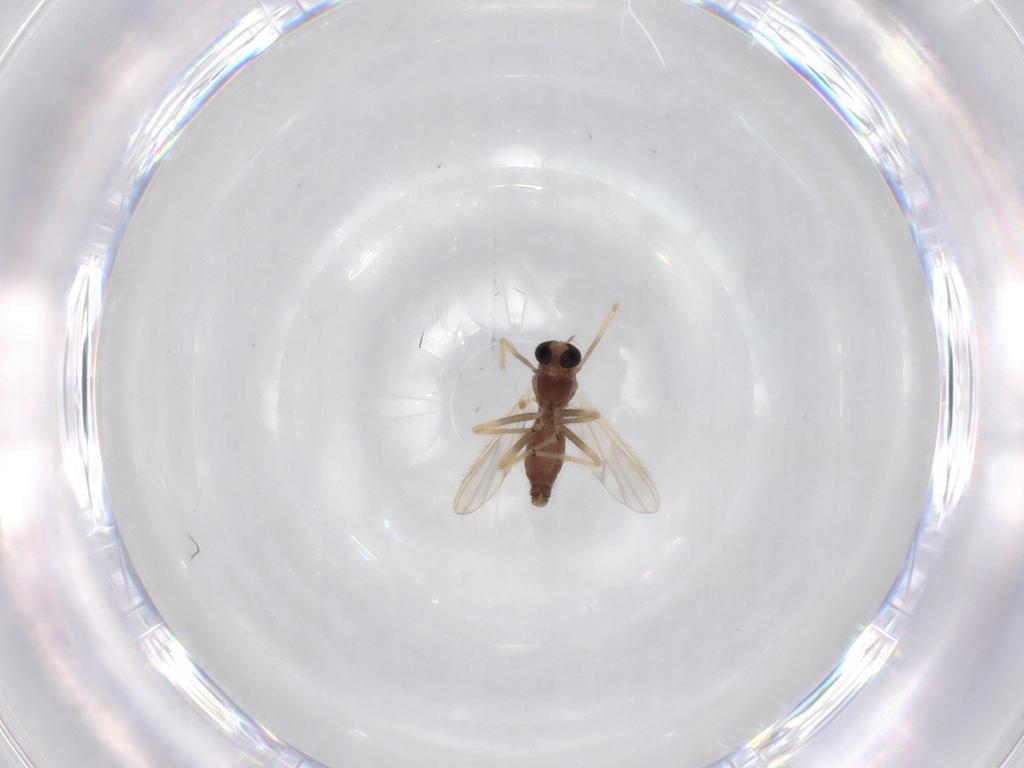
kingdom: Animalia
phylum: Arthropoda
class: Insecta
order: Diptera
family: Chironomidae
